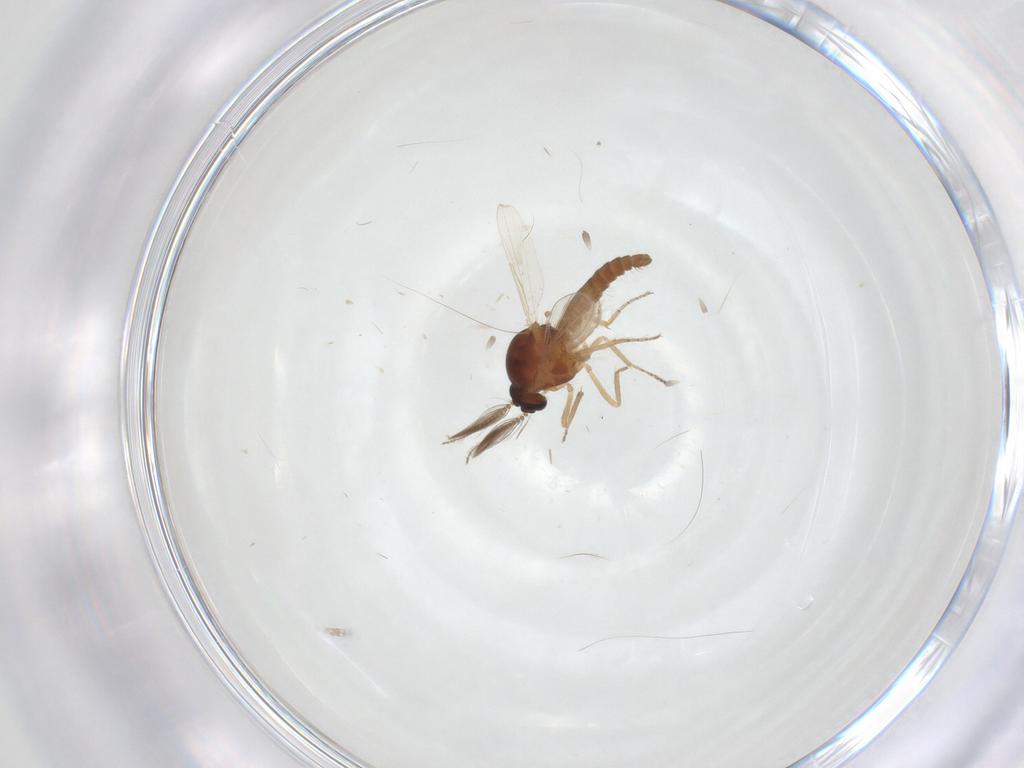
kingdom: Animalia
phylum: Arthropoda
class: Insecta
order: Diptera
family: Ceratopogonidae
